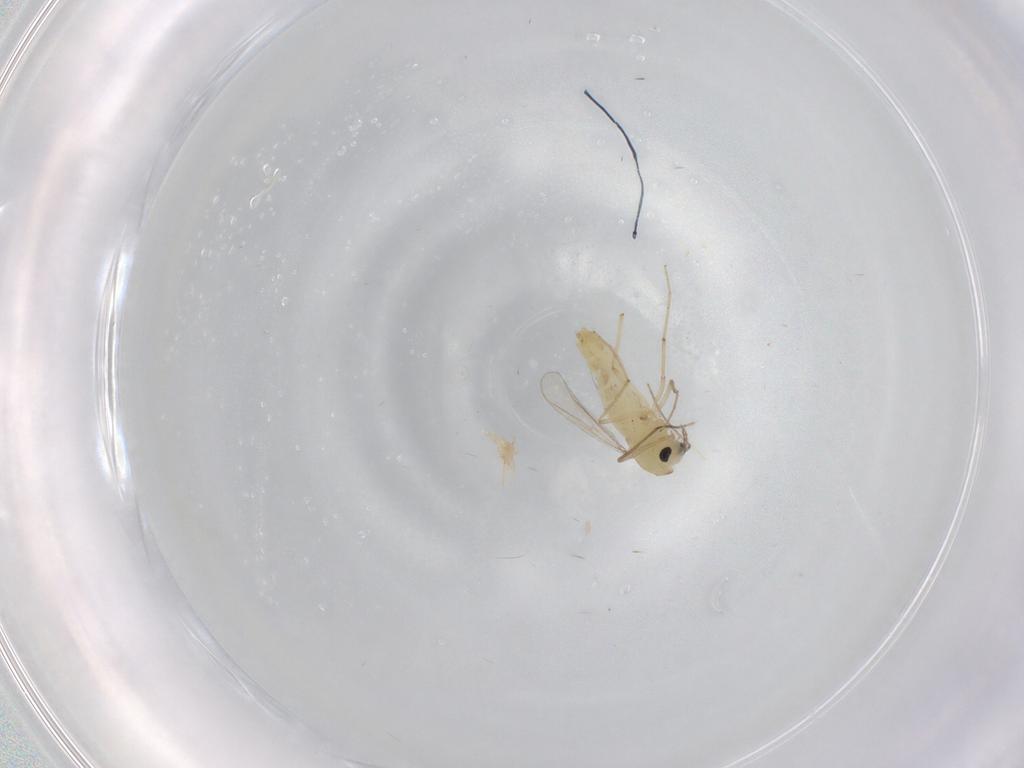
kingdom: Animalia
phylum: Arthropoda
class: Insecta
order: Diptera
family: Chironomidae
